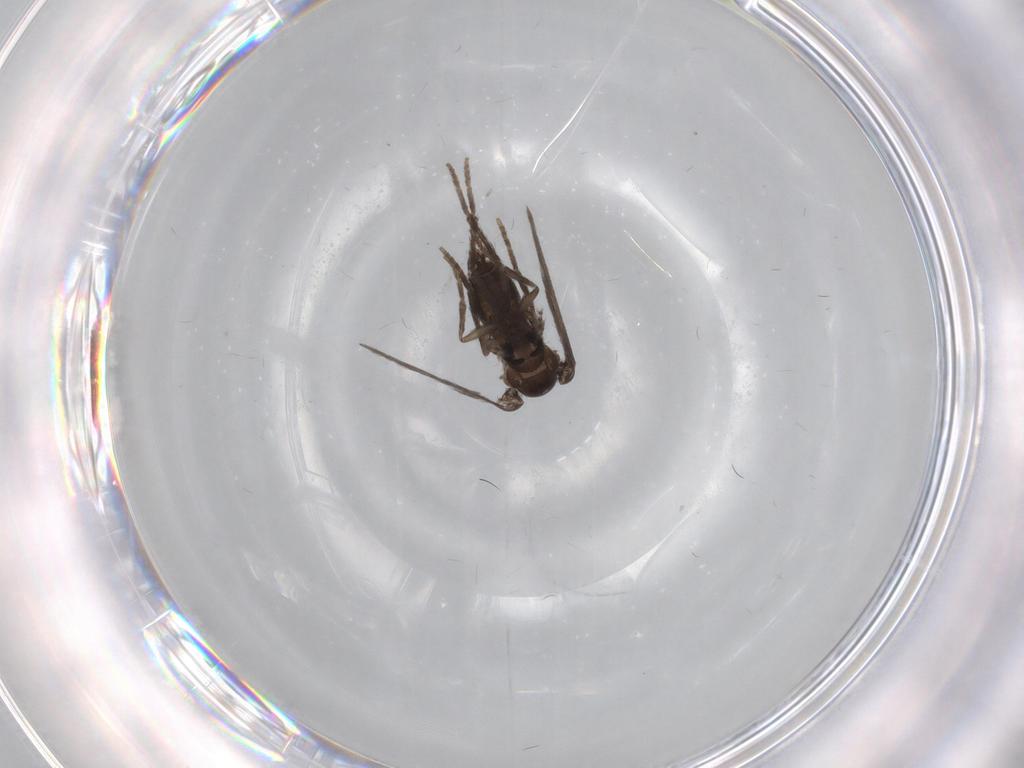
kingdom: Animalia
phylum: Arthropoda
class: Insecta
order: Diptera
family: Psychodidae
